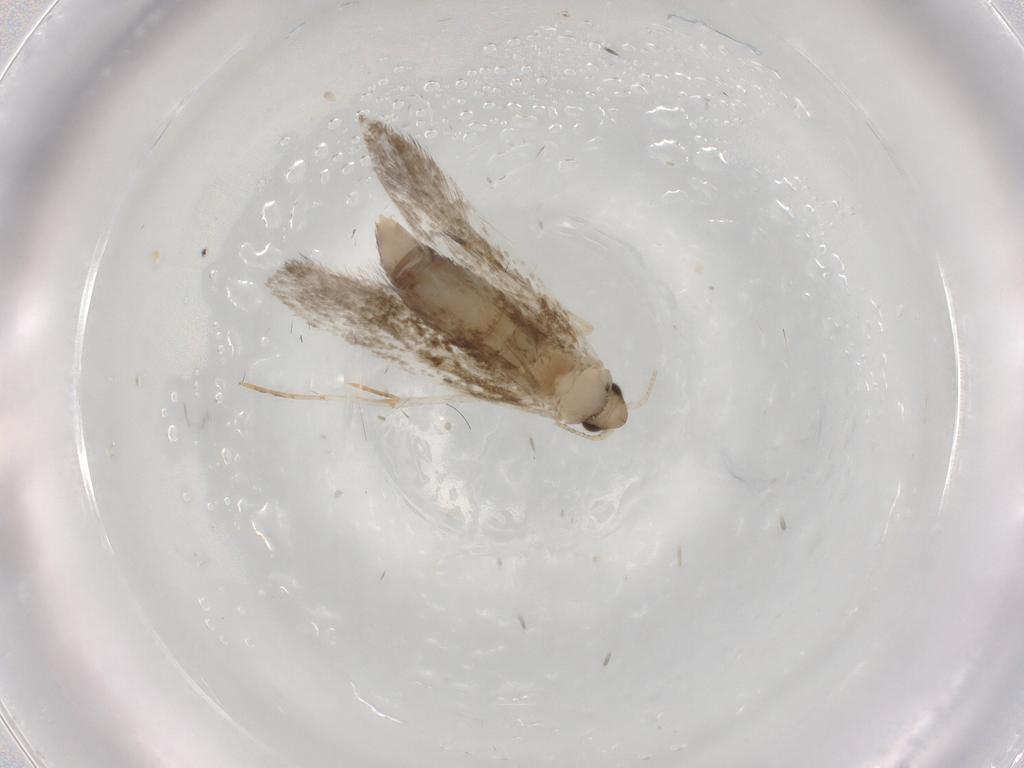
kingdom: Animalia
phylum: Arthropoda
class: Insecta
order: Lepidoptera
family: Tineidae
